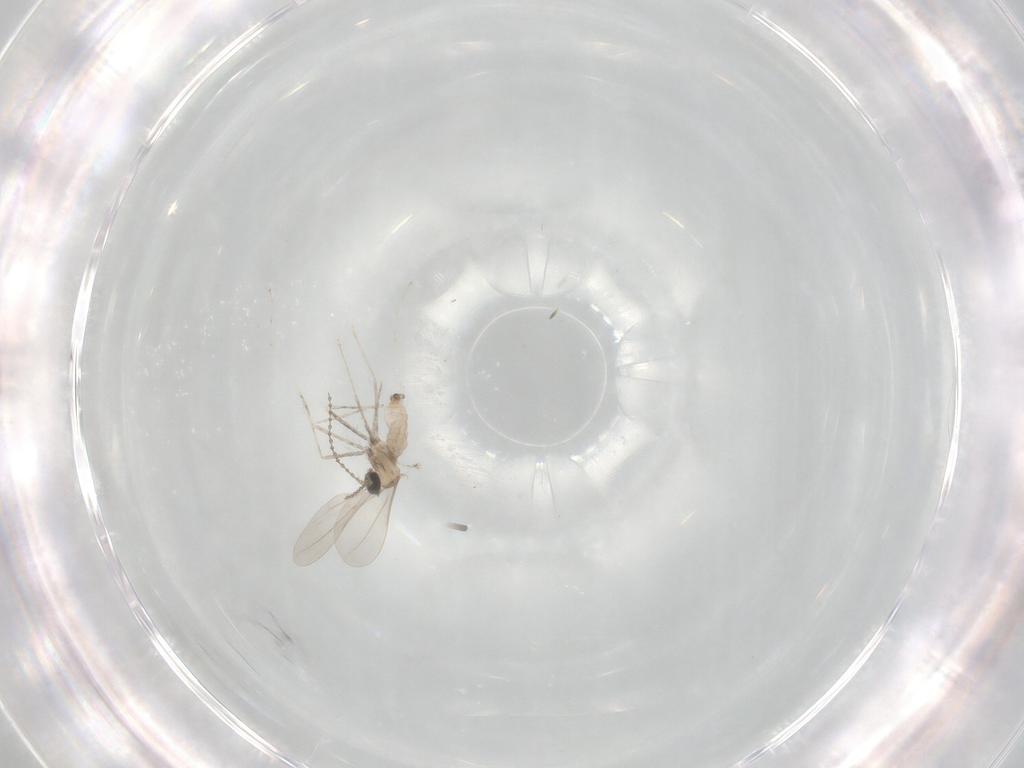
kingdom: Animalia
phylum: Arthropoda
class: Insecta
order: Diptera
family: Cecidomyiidae
